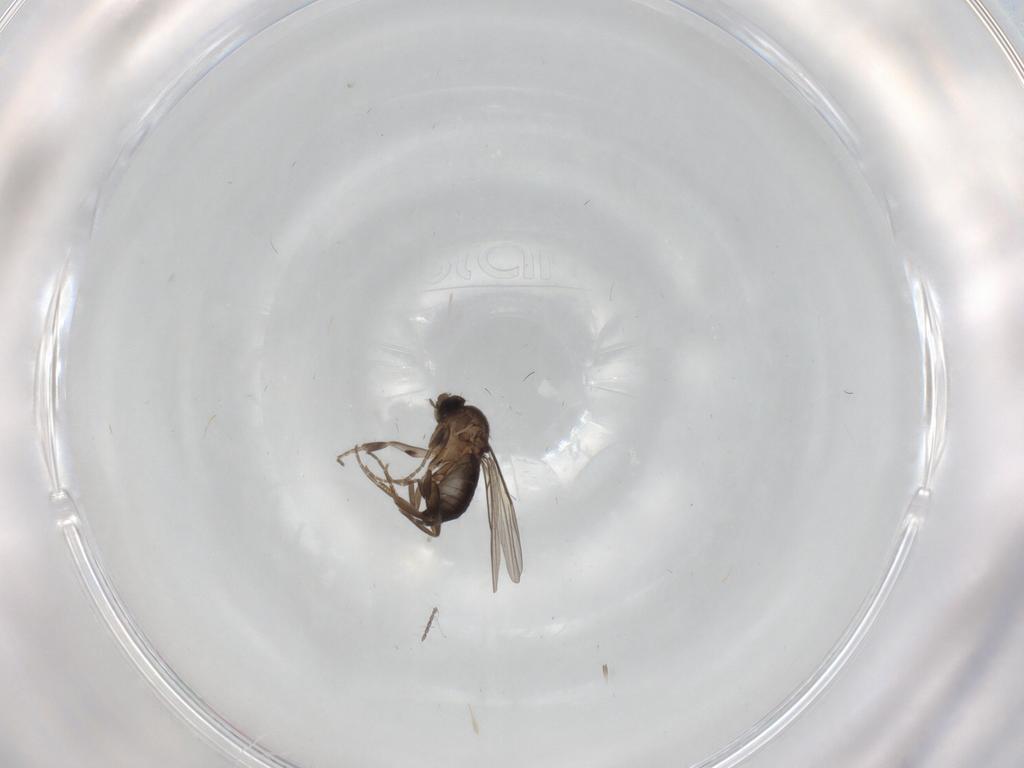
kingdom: Animalia
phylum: Arthropoda
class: Insecta
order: Diptera
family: Phoridae
